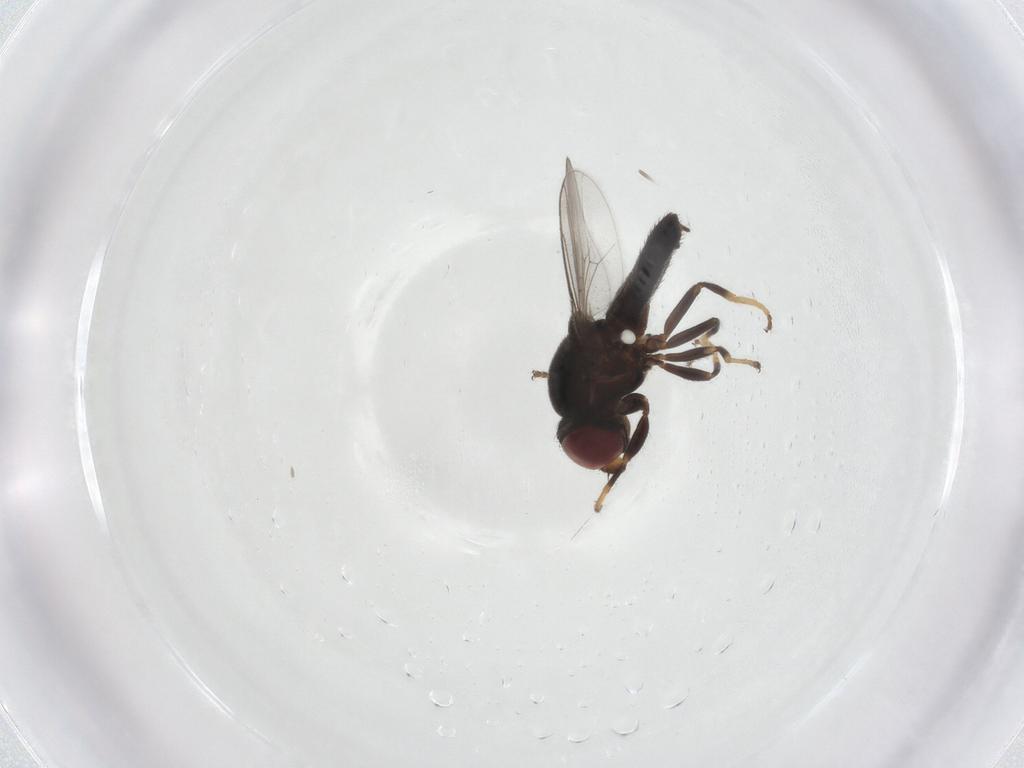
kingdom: Animalia
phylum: Arthropoda
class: Insecta
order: Diptera
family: Chloropidae
